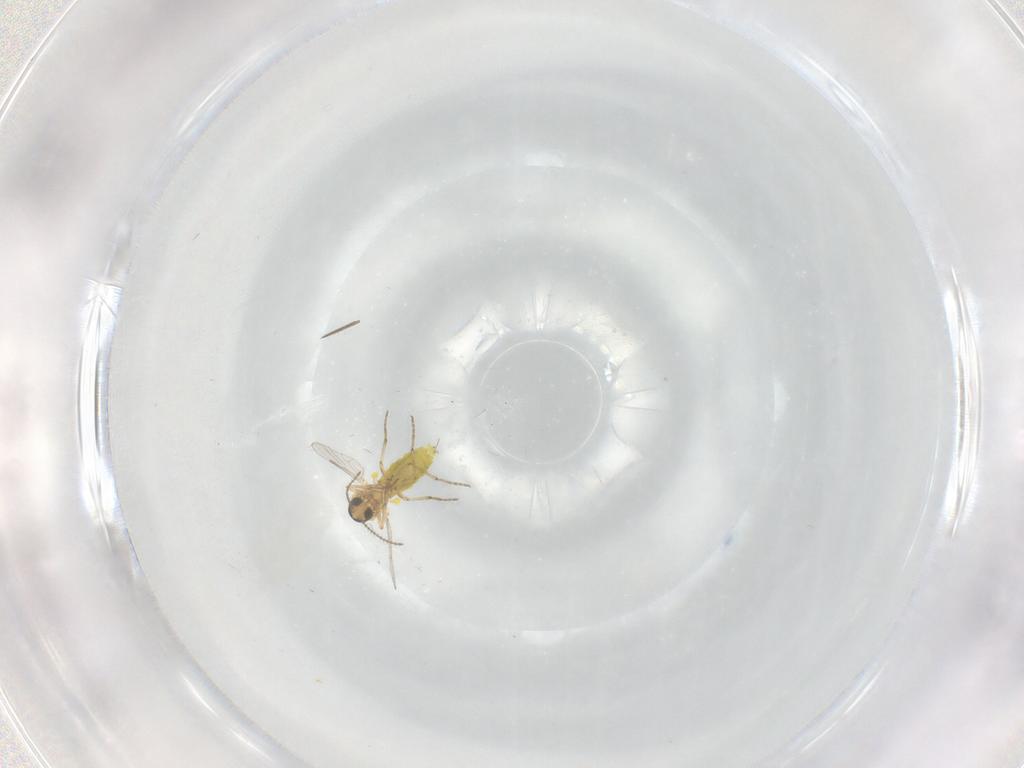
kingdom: Animalia
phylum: Arthropoda
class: Insecta
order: Diptera
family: Ceratopogonidae
